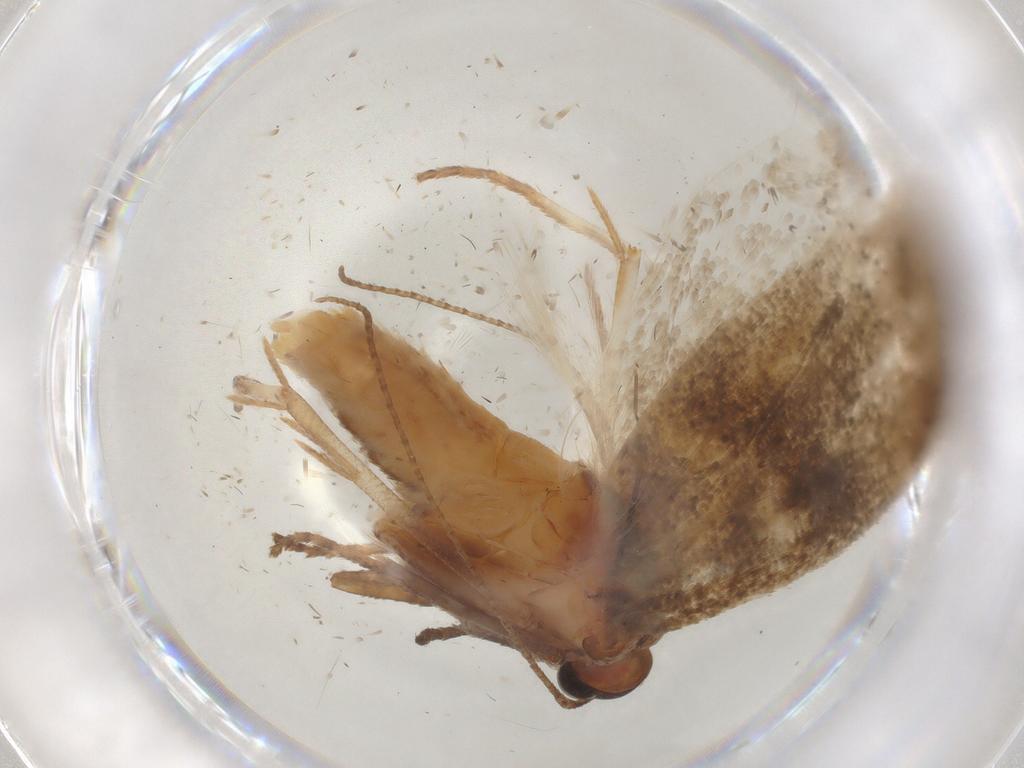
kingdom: Animalia
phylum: Arthropoda
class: Insecta
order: Lepidoptera
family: Cosmopterigidae
